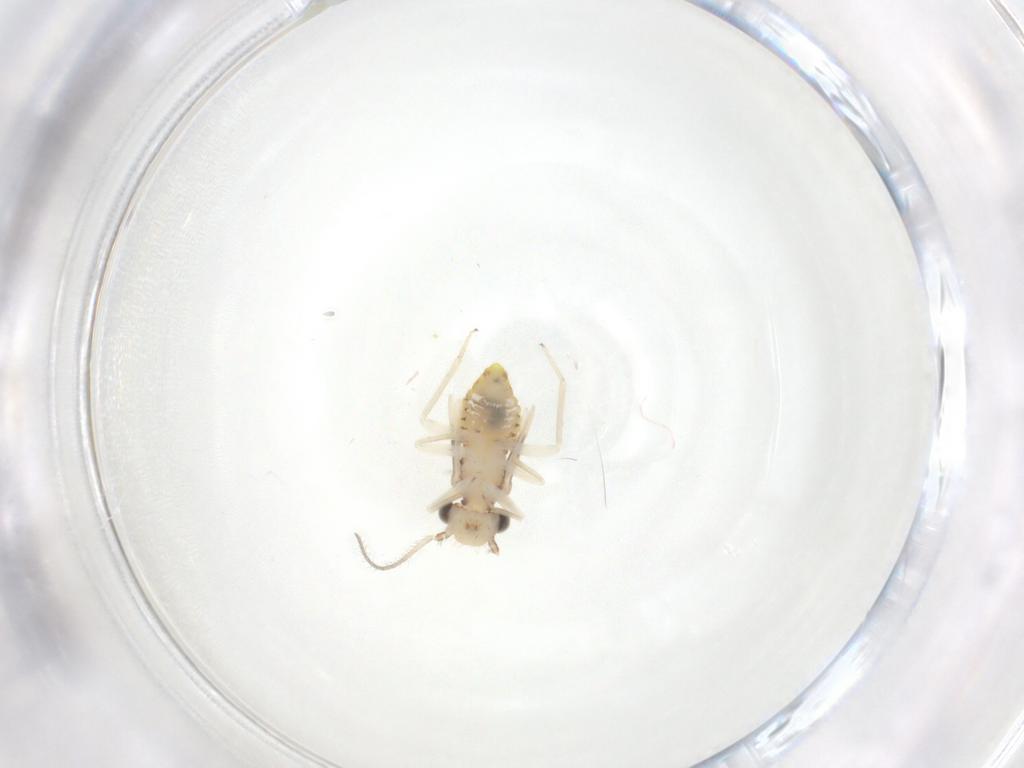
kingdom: Animalia
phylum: Arthropoda
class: Insecta
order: Psocodea
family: Caeciliusidae
